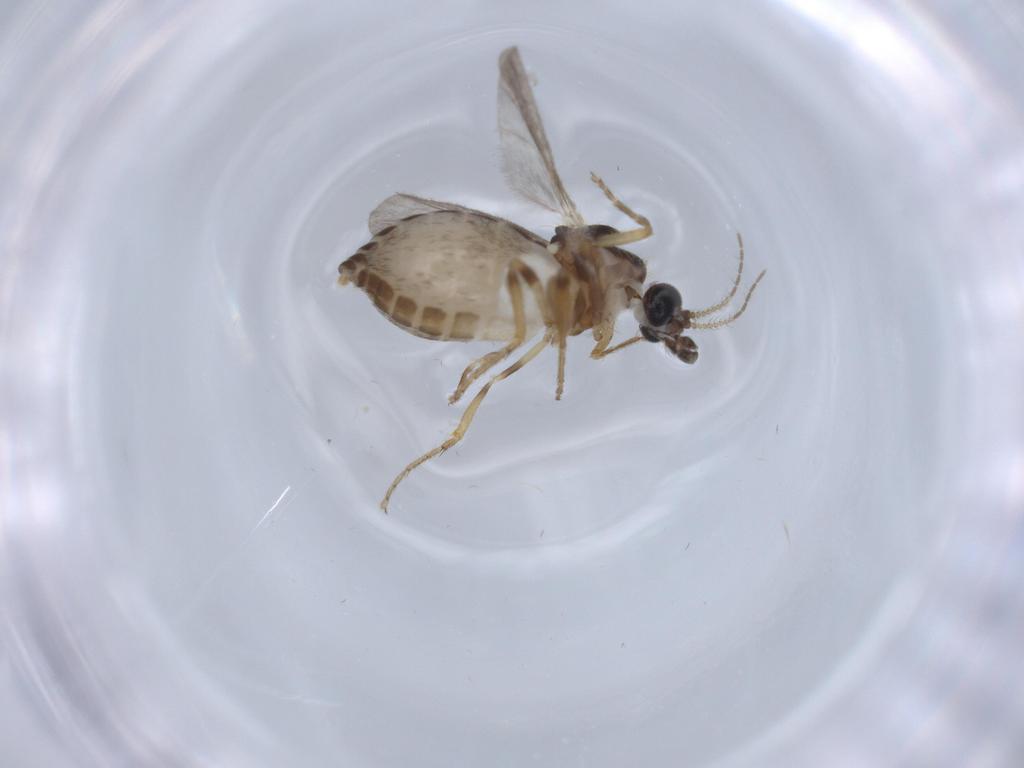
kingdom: Animalia
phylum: Arthropoda
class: Insecta
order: Diptera
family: Ceratopogonidae
